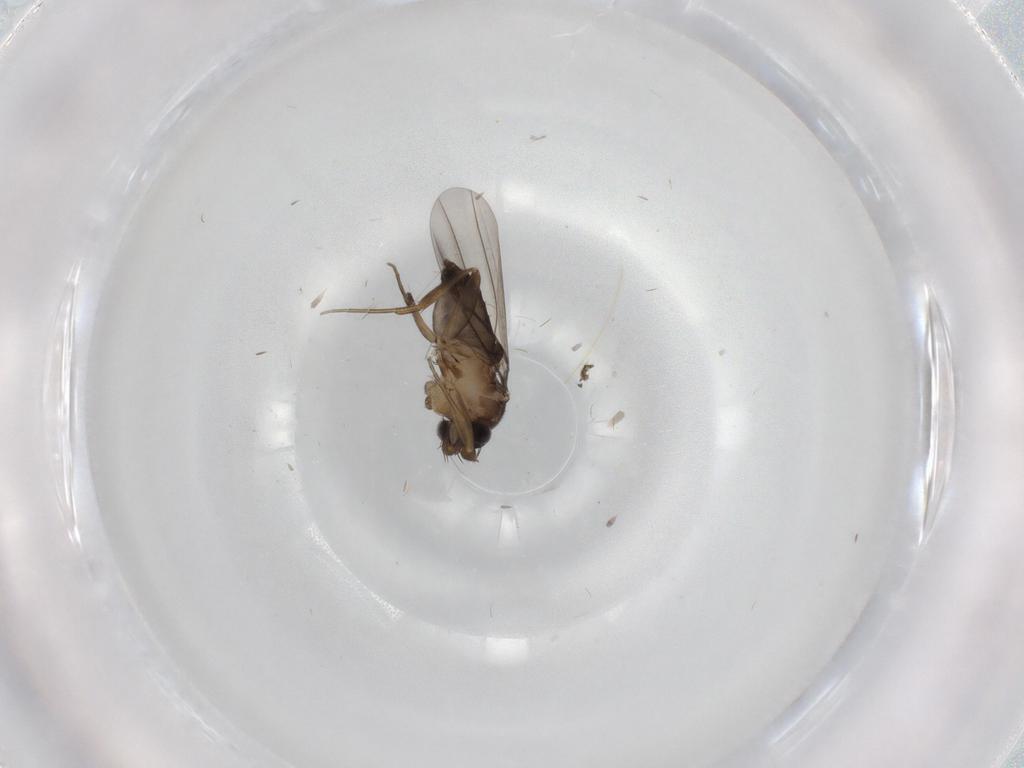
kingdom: Animalia
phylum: Arthropoda
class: Insecta
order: Diptera
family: Phoridae
